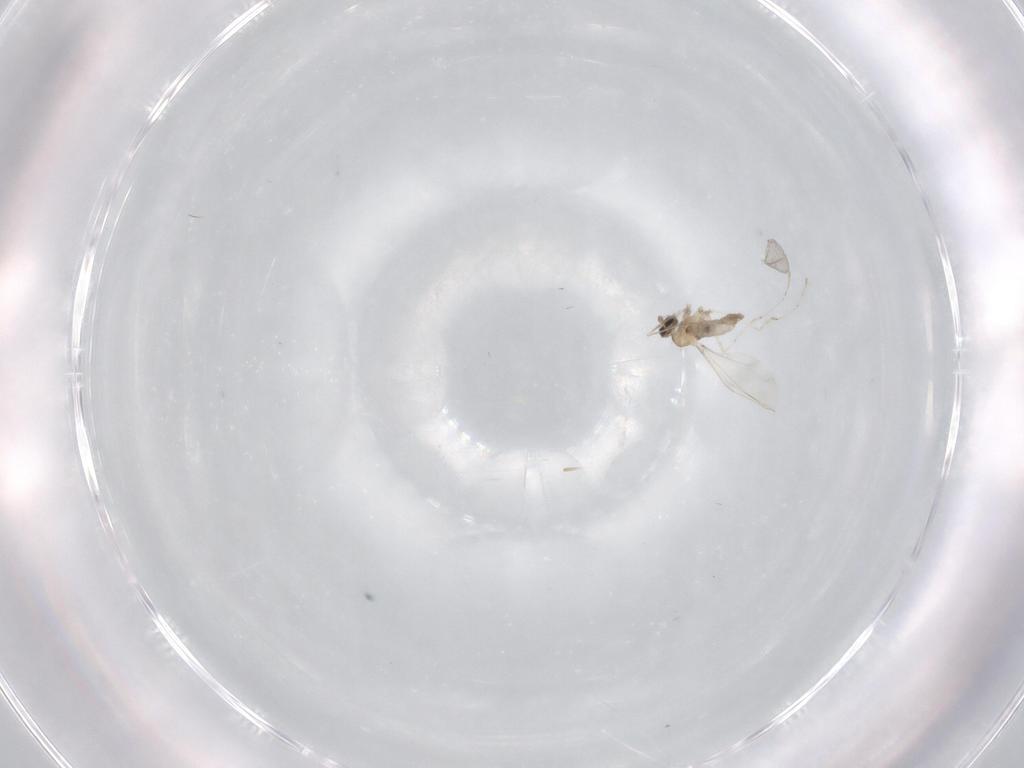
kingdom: Animalia
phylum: Arthropoda
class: Insecta
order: Diptera
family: Cecidomyiidae
